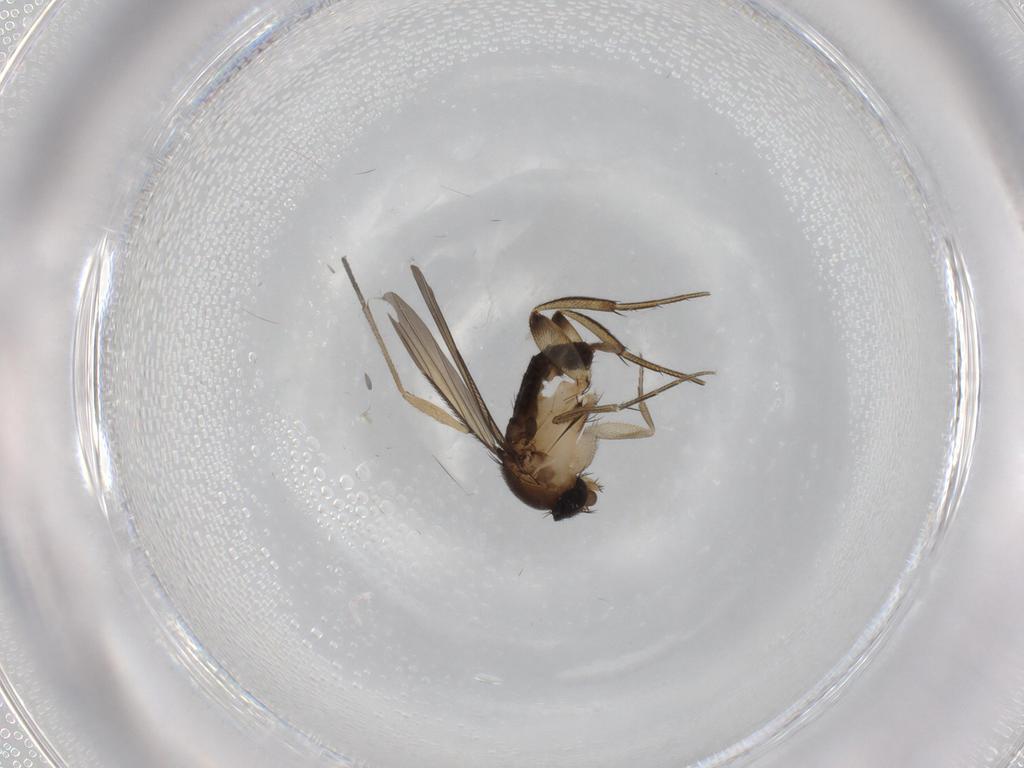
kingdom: Animalia
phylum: Arthropoda
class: Insecta
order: Diptera
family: Sciaridae
